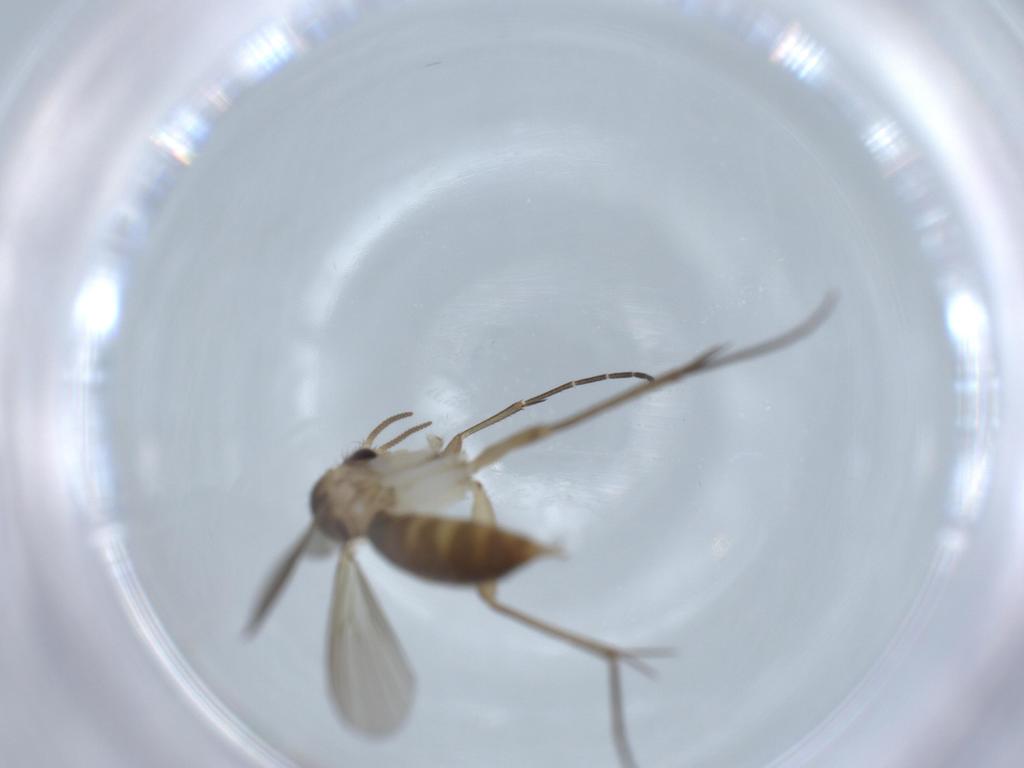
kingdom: Animalia
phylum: Arthropoda
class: Insecta
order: Diptera
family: Mycetophilidae
